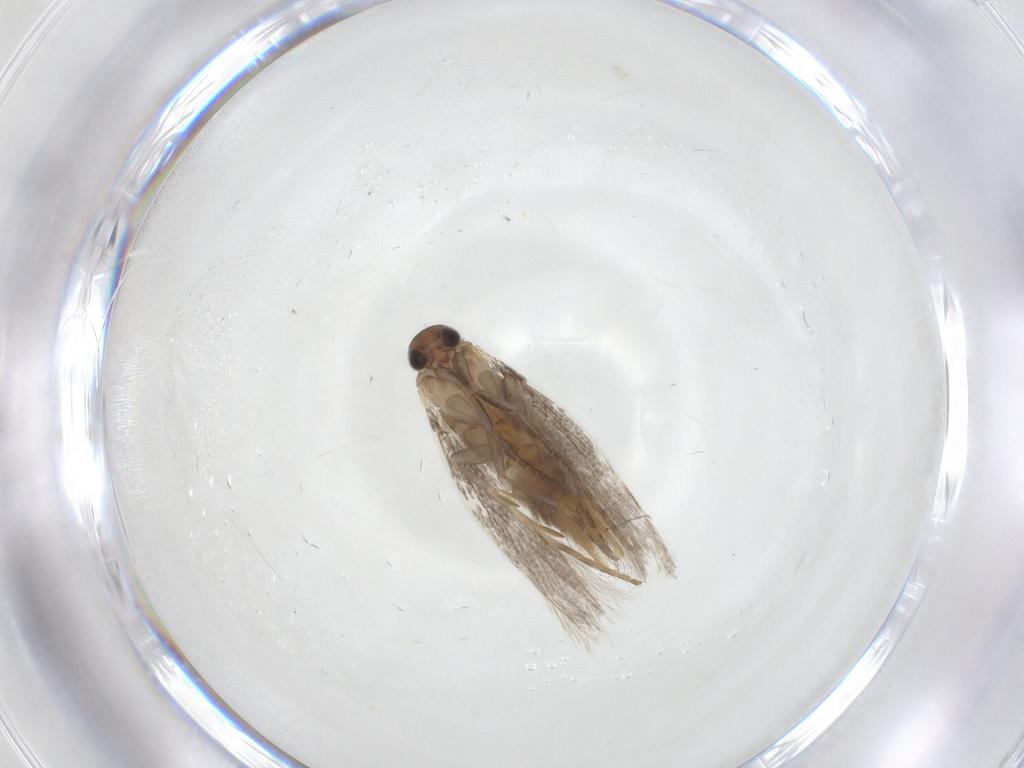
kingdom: Animalia
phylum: Arthropoda
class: Insecta
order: Lepidoptera
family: Elachistidae
